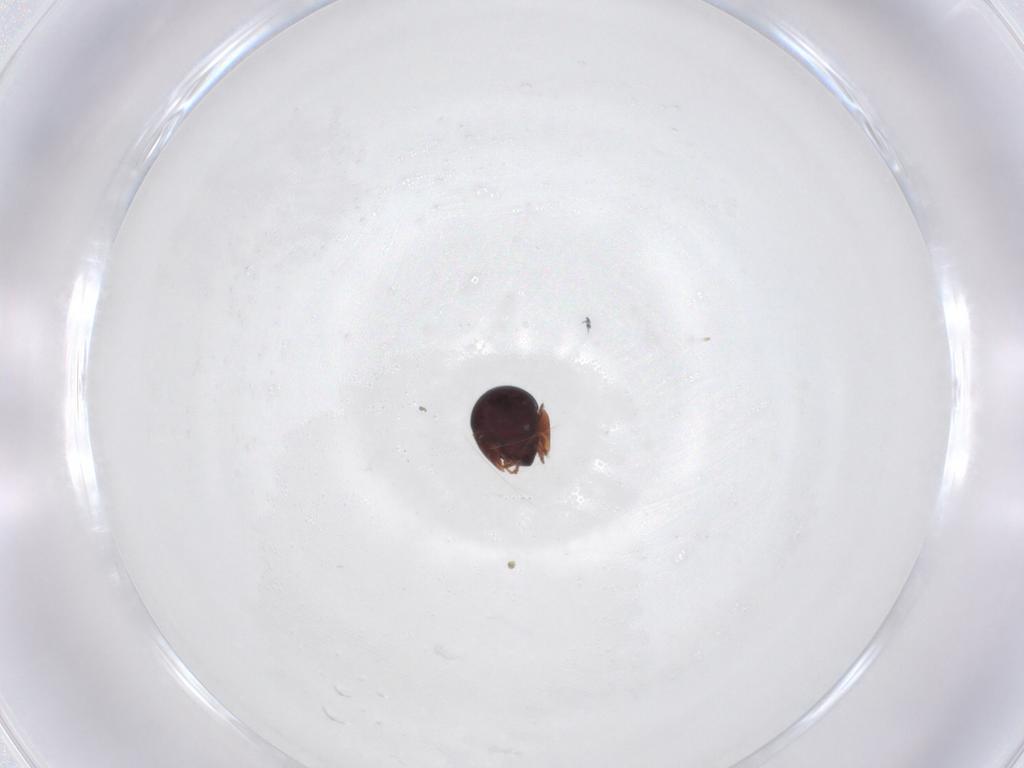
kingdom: Animalia
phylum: Arthropoda
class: Arachnida
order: Sarcoptiformes
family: Galumnidae
